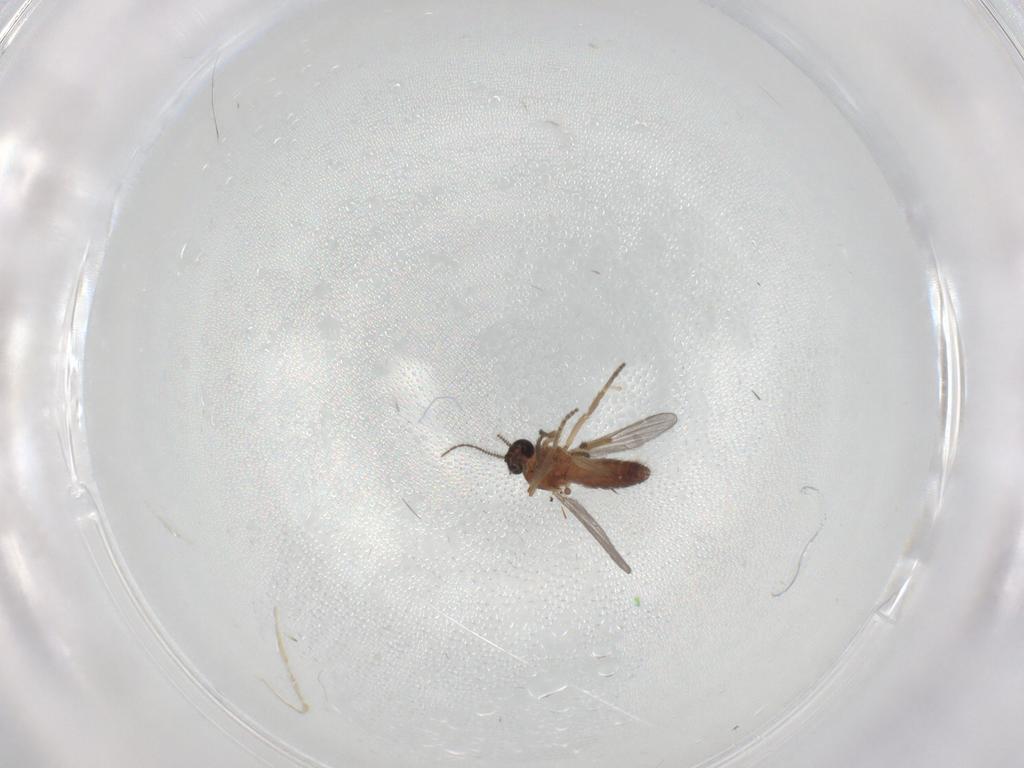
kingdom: Animalia
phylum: Arthropoda
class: Insecta
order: Diptera
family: Ceratopogonidae
